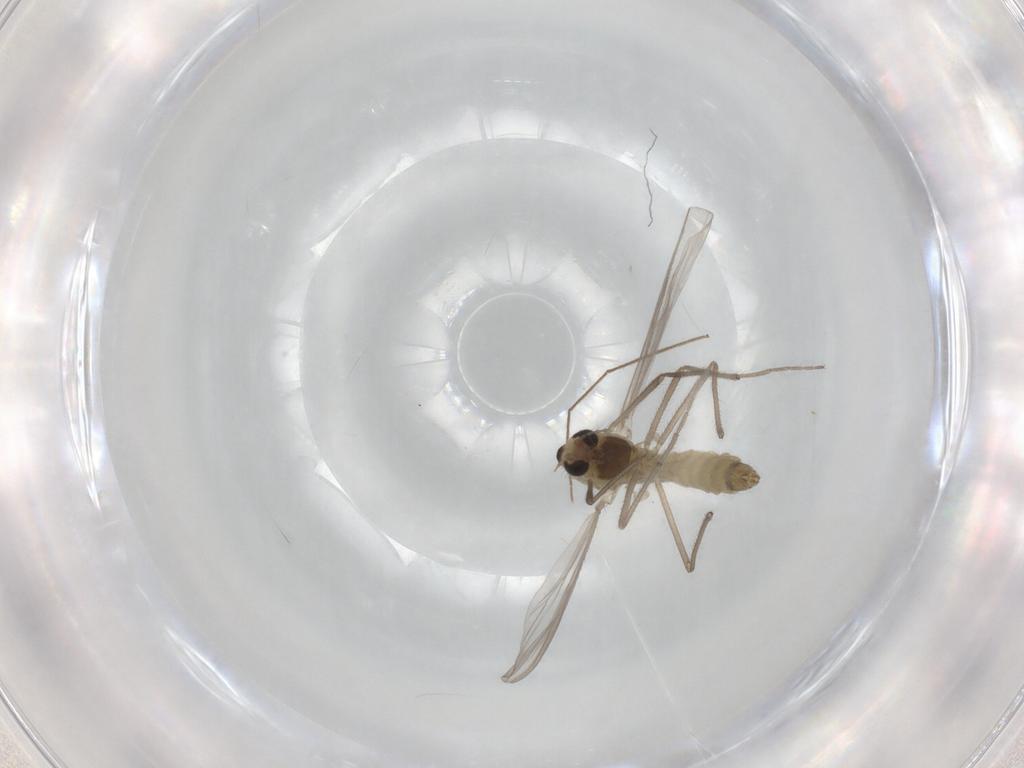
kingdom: Animalia
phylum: Arthropoda
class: Insecta
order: Diptera
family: Chironomidae
